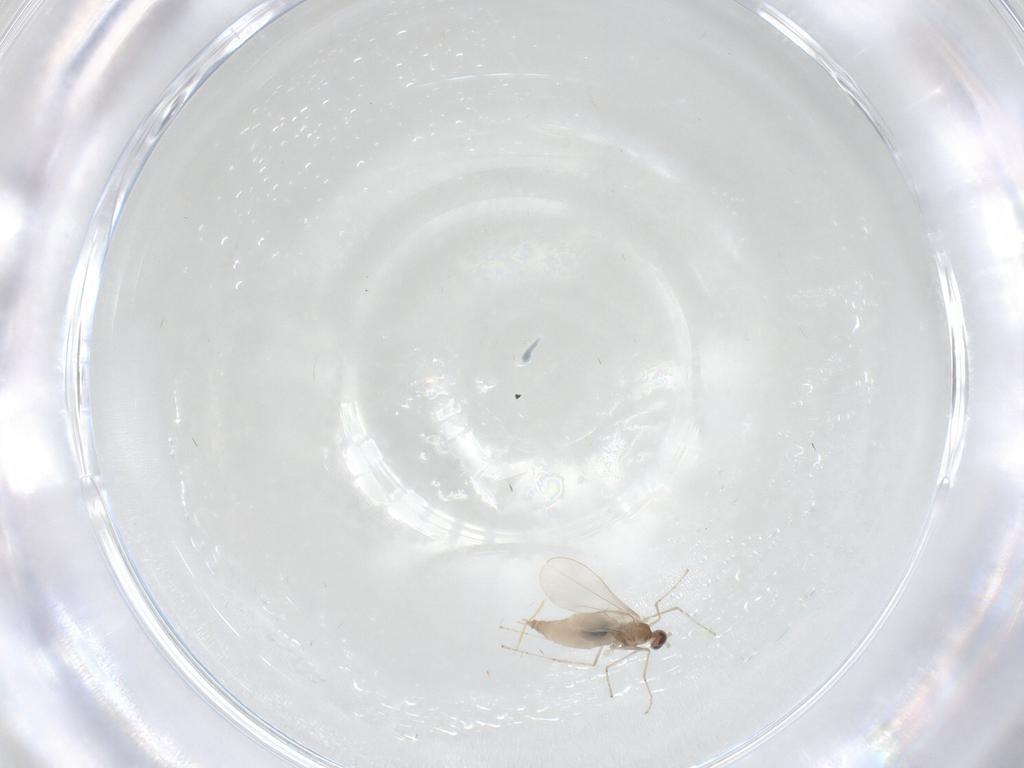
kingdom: Animalia
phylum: Arthropoda
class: Insecta
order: Diptera
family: Cecidomyiidae
